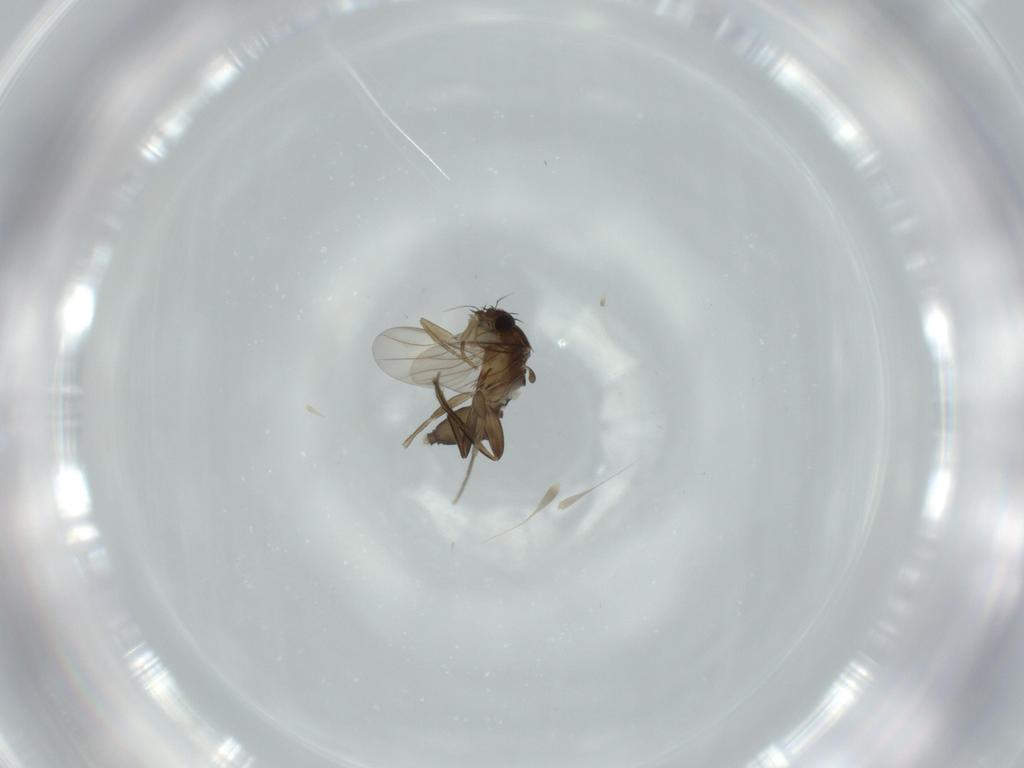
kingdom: Animalia
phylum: Arthropoda
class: Insecta
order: Diptera
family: Phoridae
